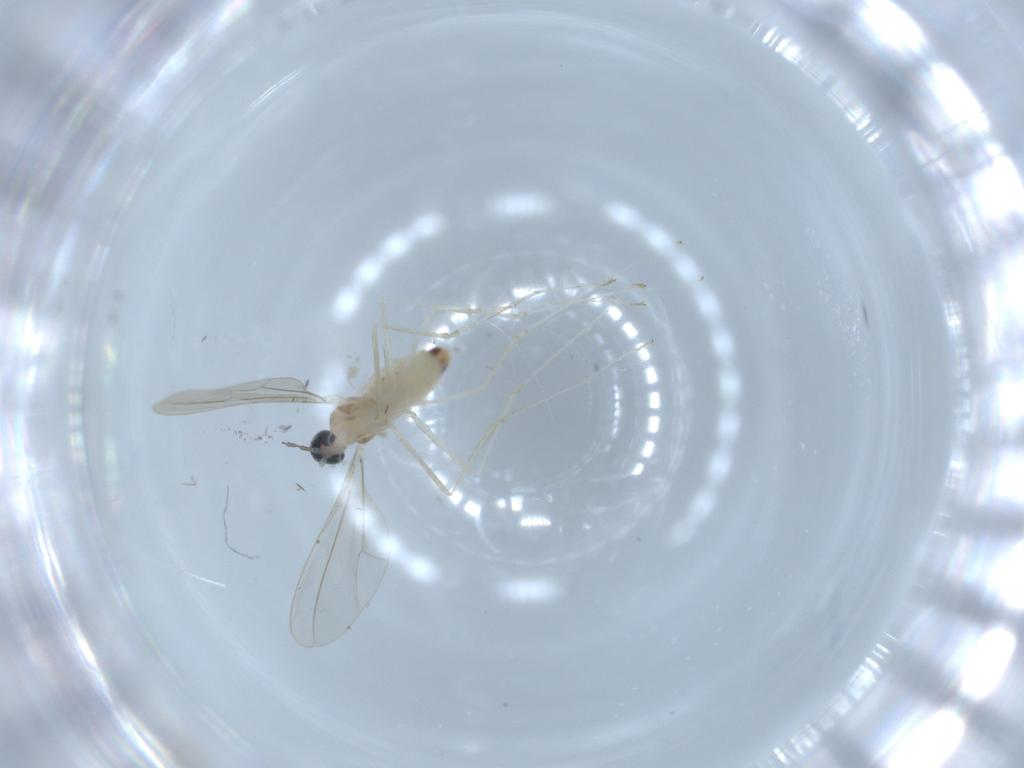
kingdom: Animalia
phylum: Arthropoda
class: Insecta
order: Diptera
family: Cecidomyiidae
